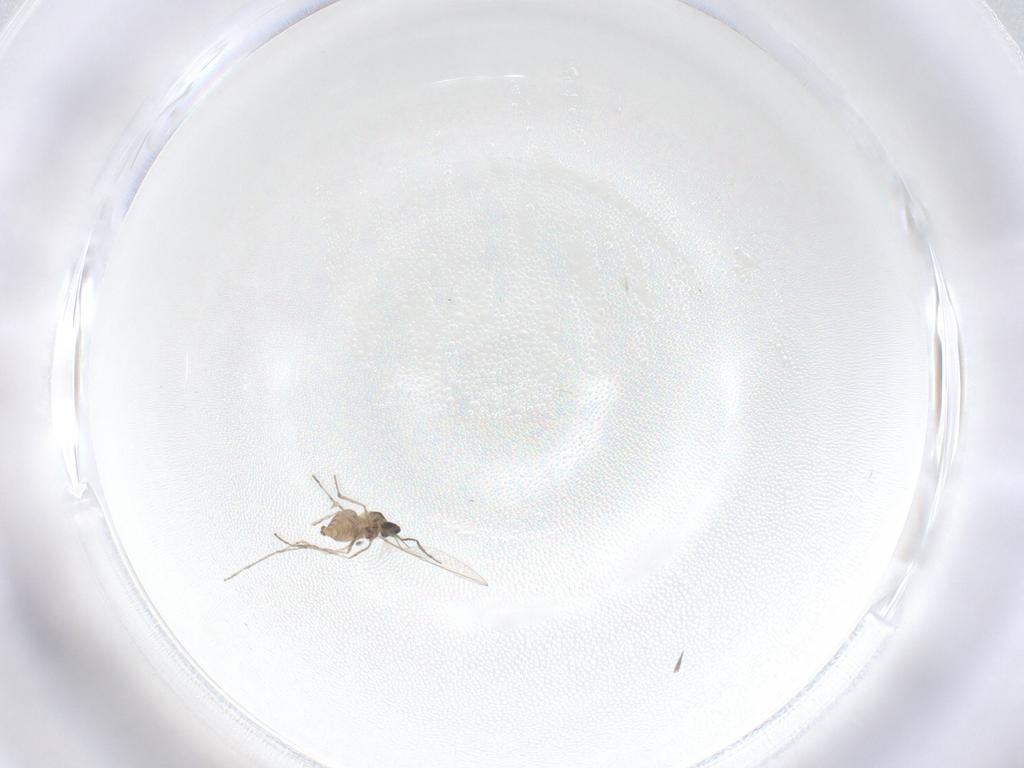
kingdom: Animalia
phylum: Arthropoda
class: Insecta
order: Diptera
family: Cecidomyiidae
